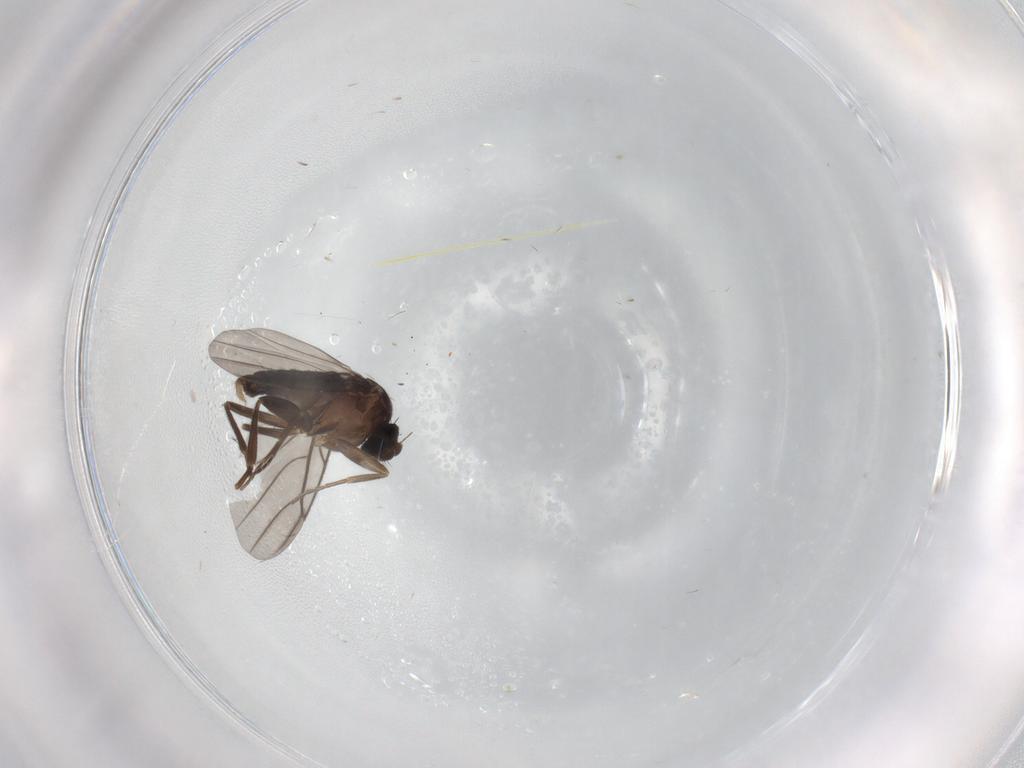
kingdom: Animalia
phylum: Arthropoda
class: Insecta
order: Diptera
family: Phoridae
